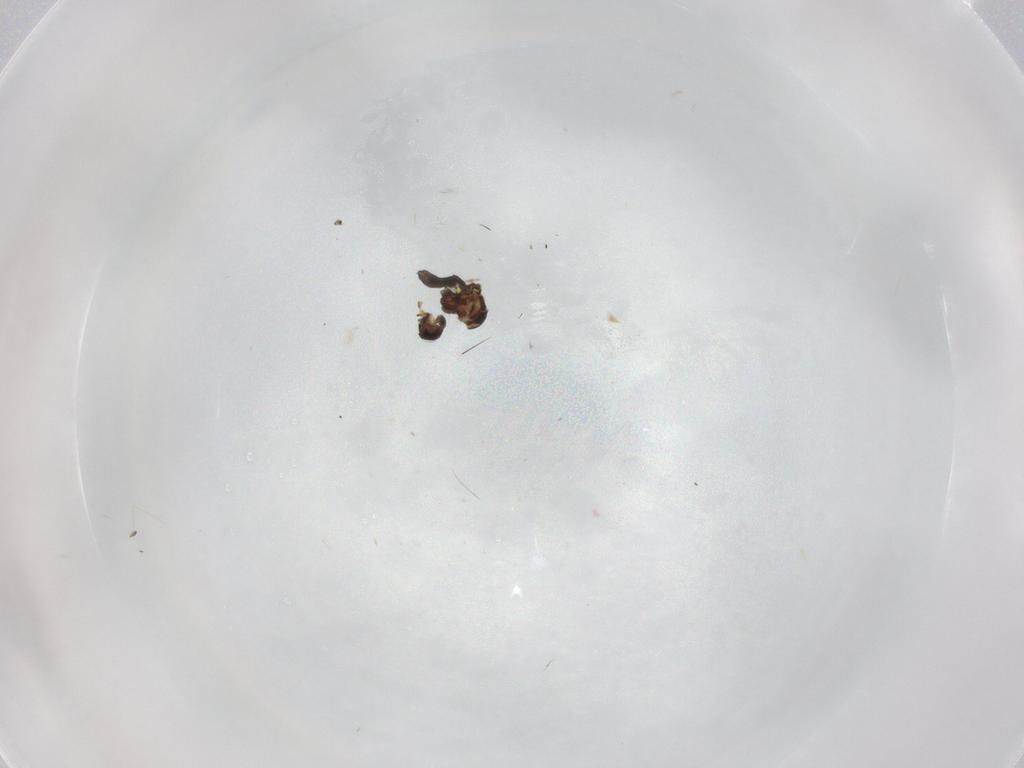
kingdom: Animalia
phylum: Arthropoda
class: Insecta
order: Diptera
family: Ceratopogonidae
